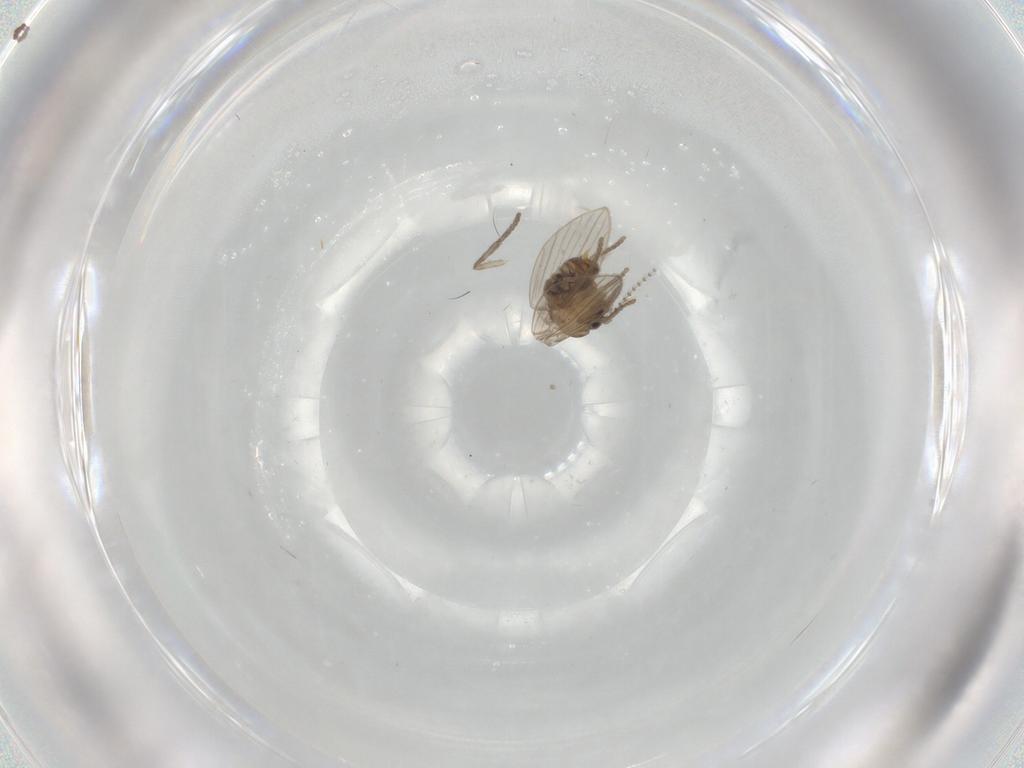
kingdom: Animalia
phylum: Arthropoda
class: Insecta
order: Diptera
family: Psychodidae
